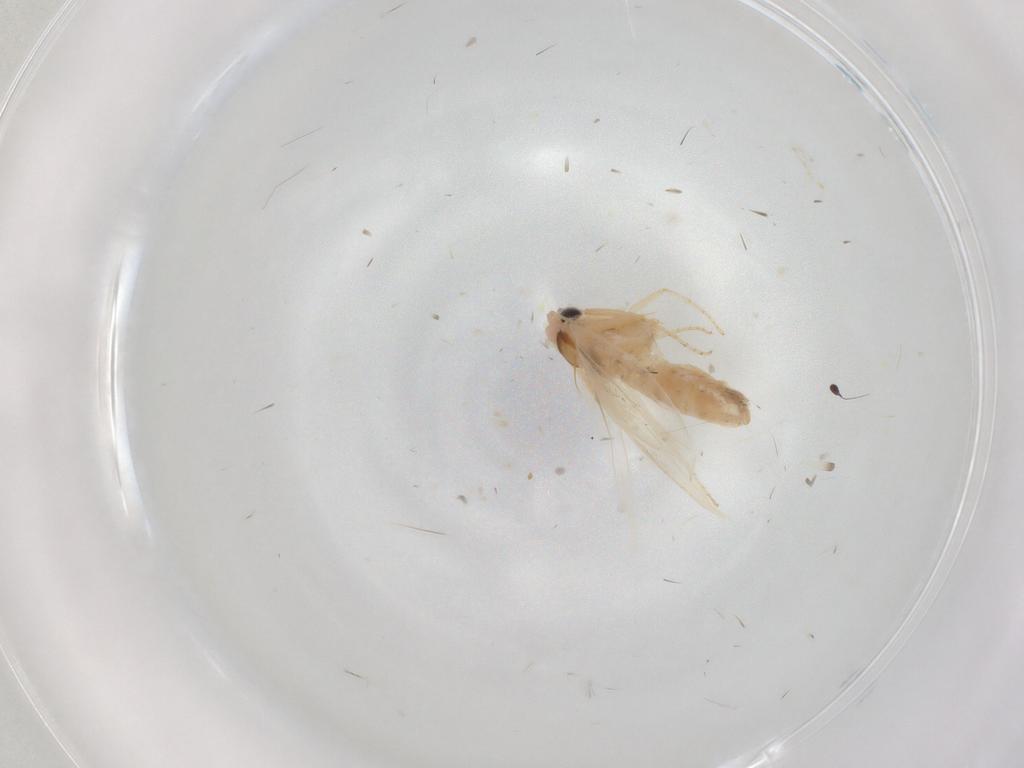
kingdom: Animalia
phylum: Arthropoda
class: Insecta
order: Lepidoptera
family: Bucculatricidae
